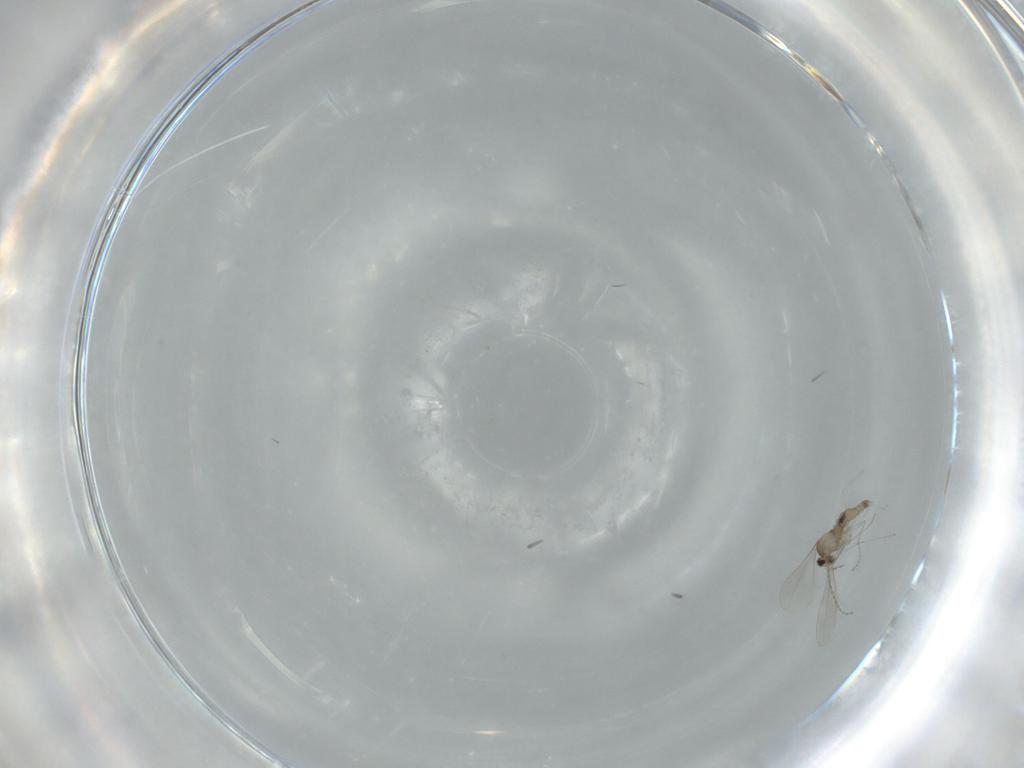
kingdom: Animalia
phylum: Arthropoda
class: Insecta
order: Diptera
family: Cecidomyiidae
